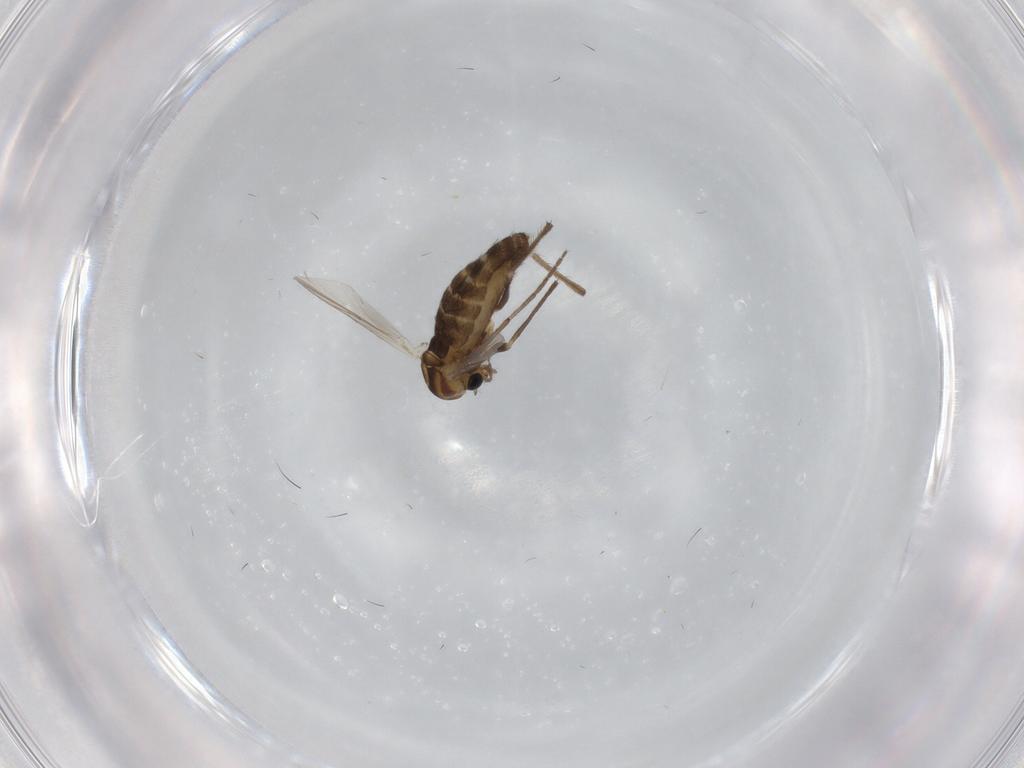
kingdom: Animalia
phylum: Arthropoda
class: Insecta
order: Diptera
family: Chironomidae
